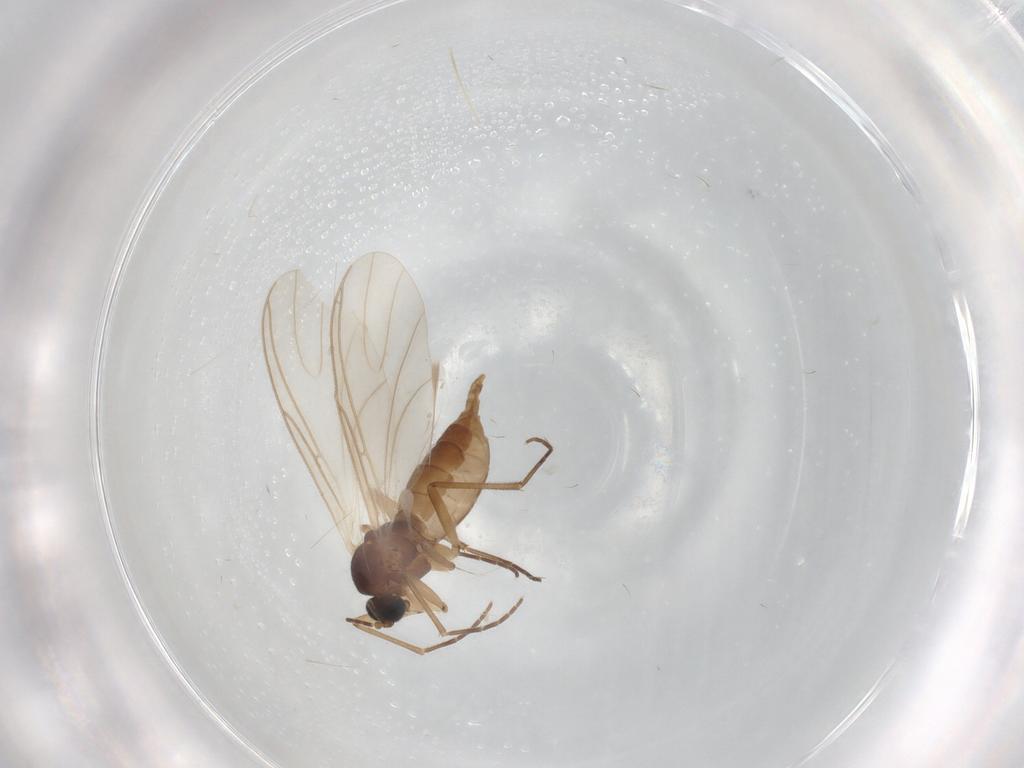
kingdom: Animalia
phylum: Arthropoda
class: Insecta
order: Diptera
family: Sciaridae
